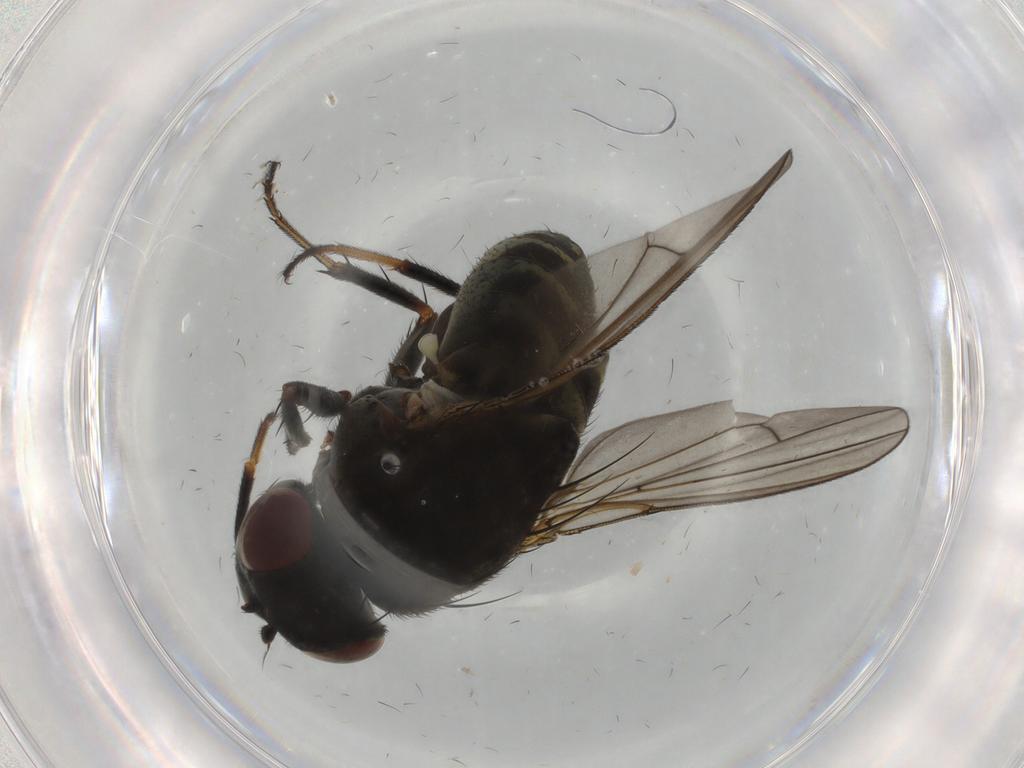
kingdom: Animalia
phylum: Arthropoda
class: Insecta
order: Diptera
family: Ephydridae
